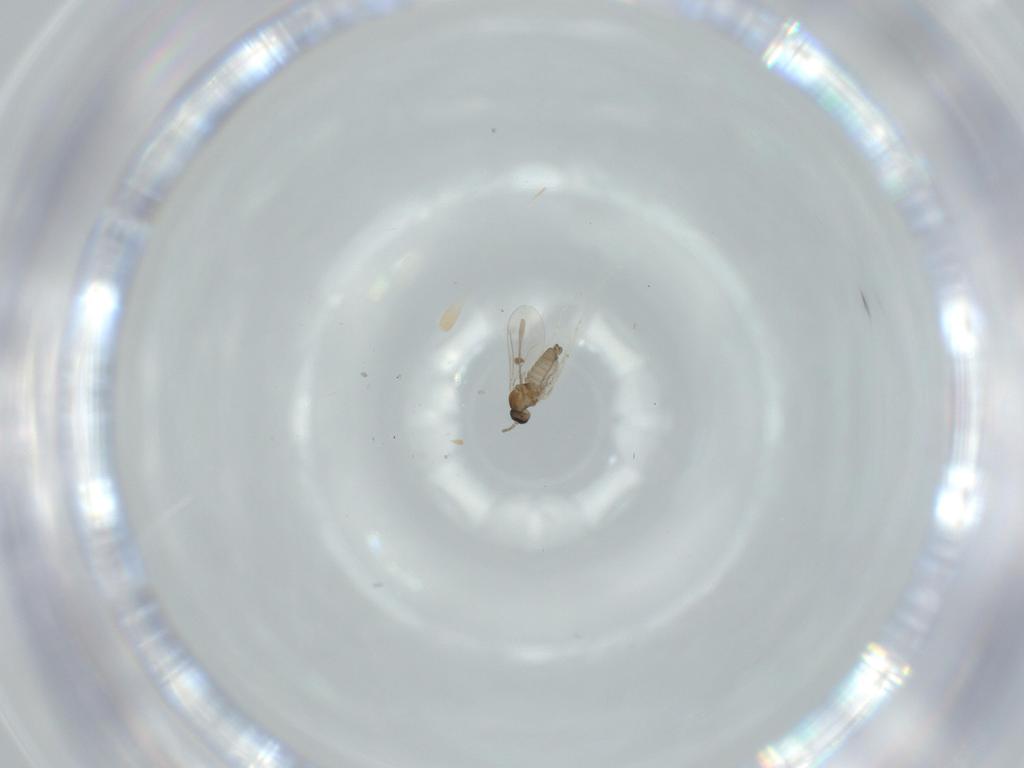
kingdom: Animalia
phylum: Arthropoda
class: Insecta
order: Diptera
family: Cecidomyiidae
